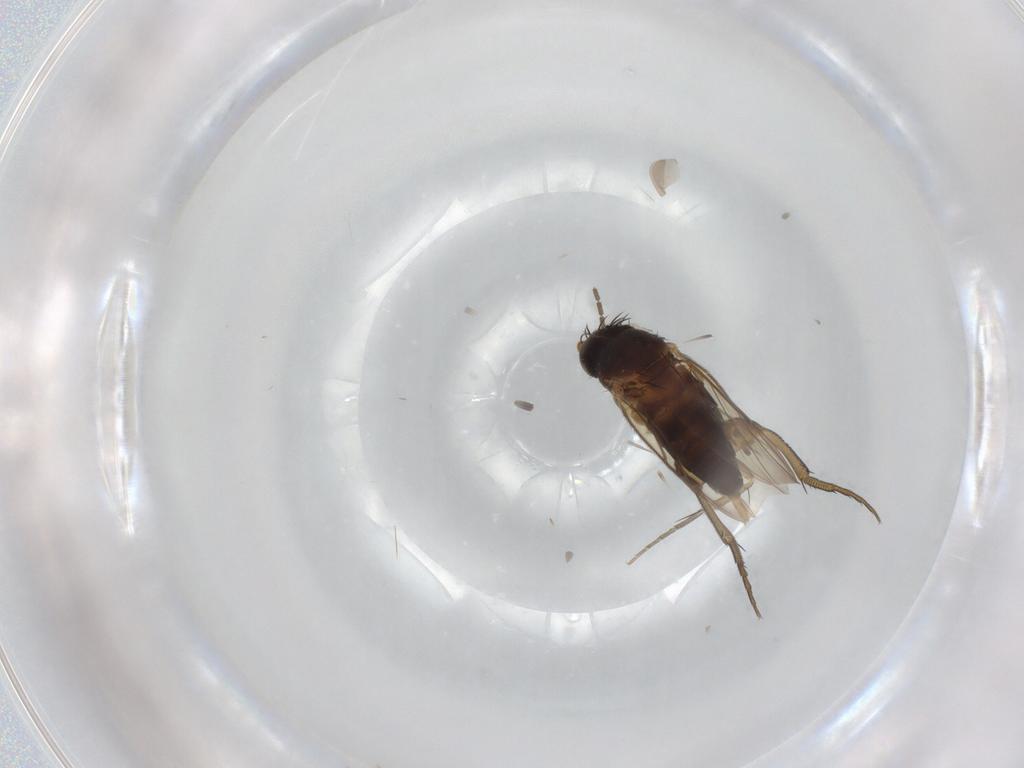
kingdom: Animalia
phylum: Arthropoda
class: Insecta
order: Diptera
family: Phoridae
